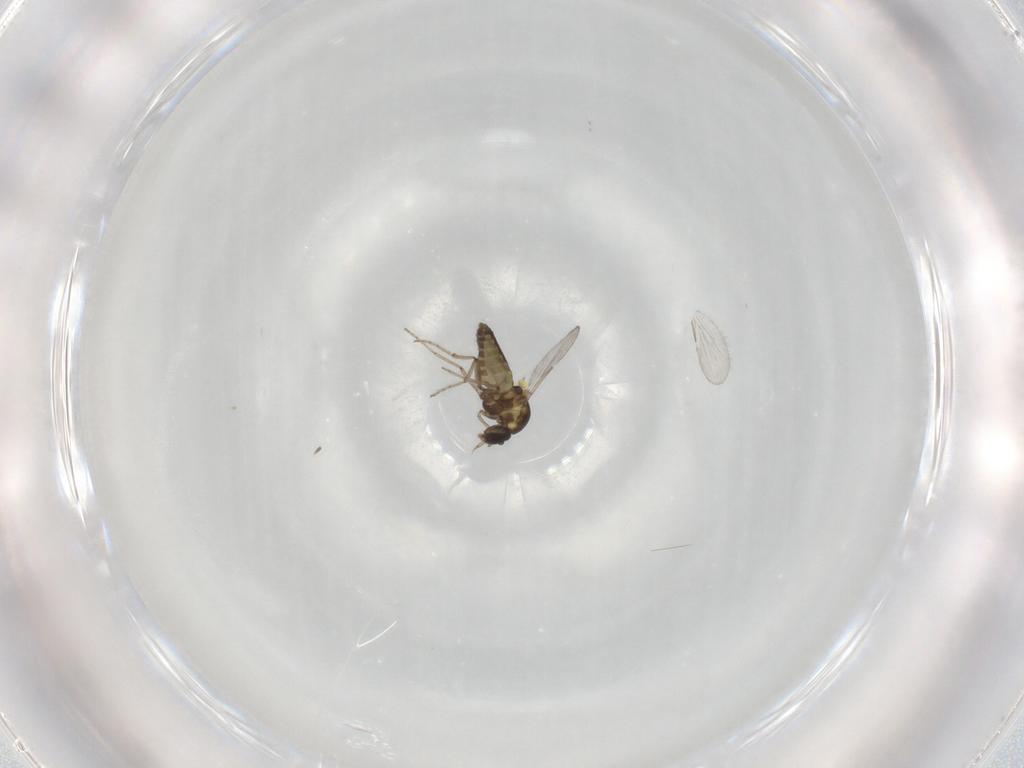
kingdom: Animalia
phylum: Arthropoda
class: Insecta
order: Diptera
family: Ceratopogonidae
